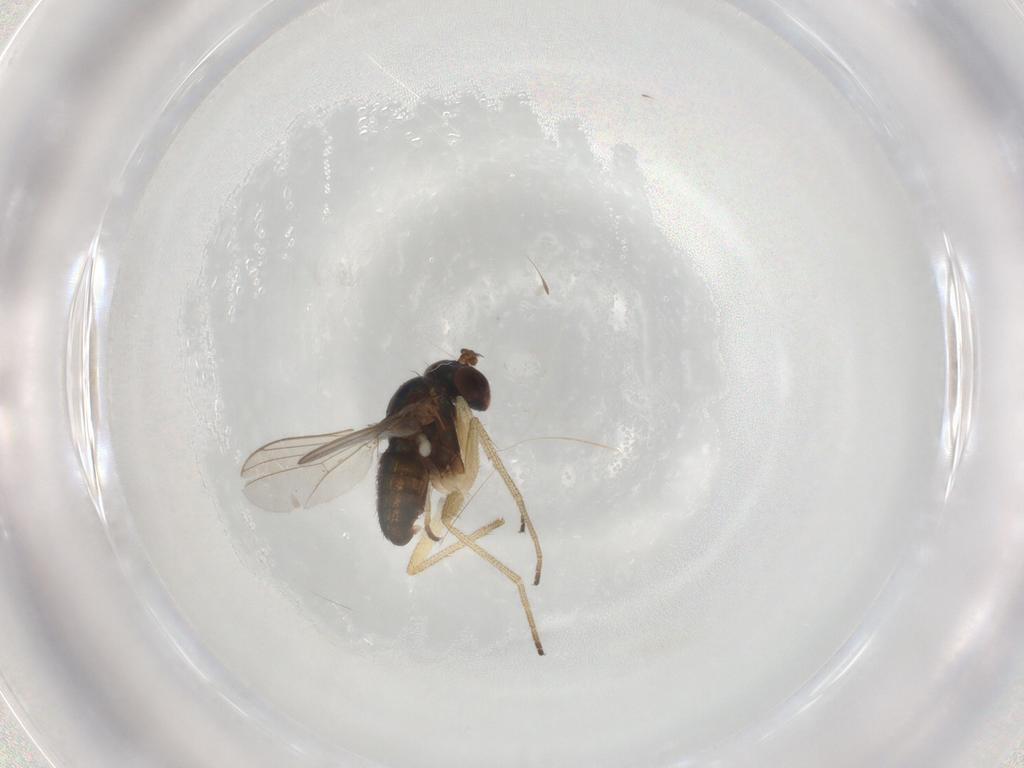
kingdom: Animalia
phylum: Arthropoda
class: Insecta
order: Diptera
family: Dolichopodidae
